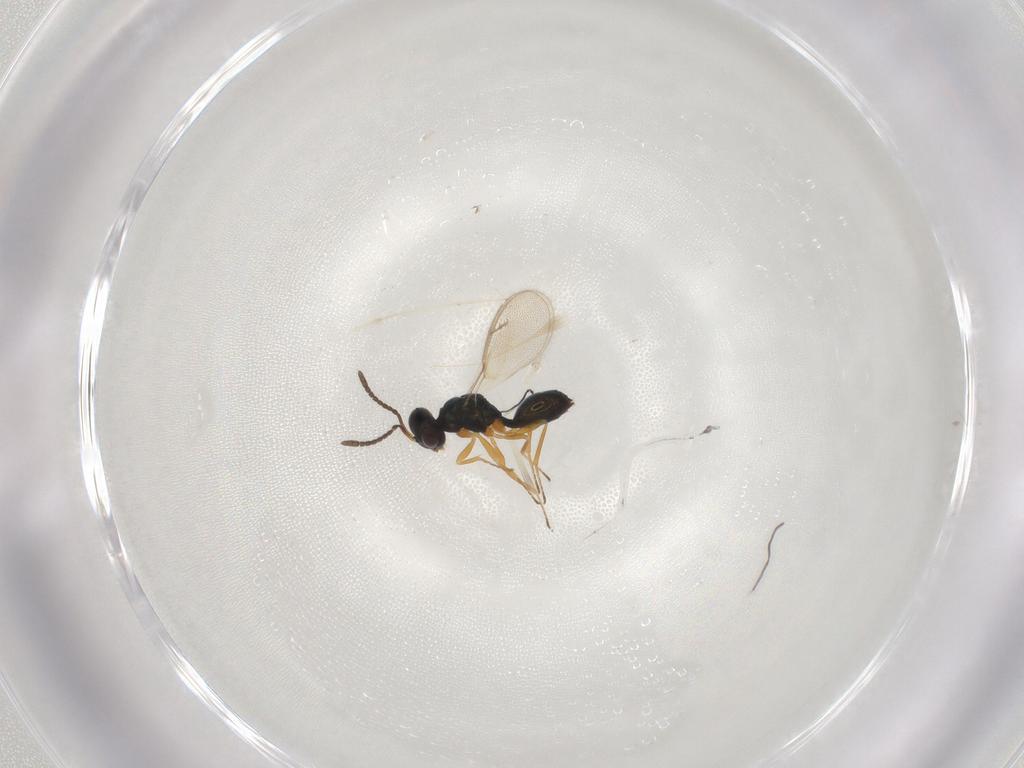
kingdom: Animalia
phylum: Arthropoda
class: Insecta
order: Hymenoptera
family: Pteromalidae
